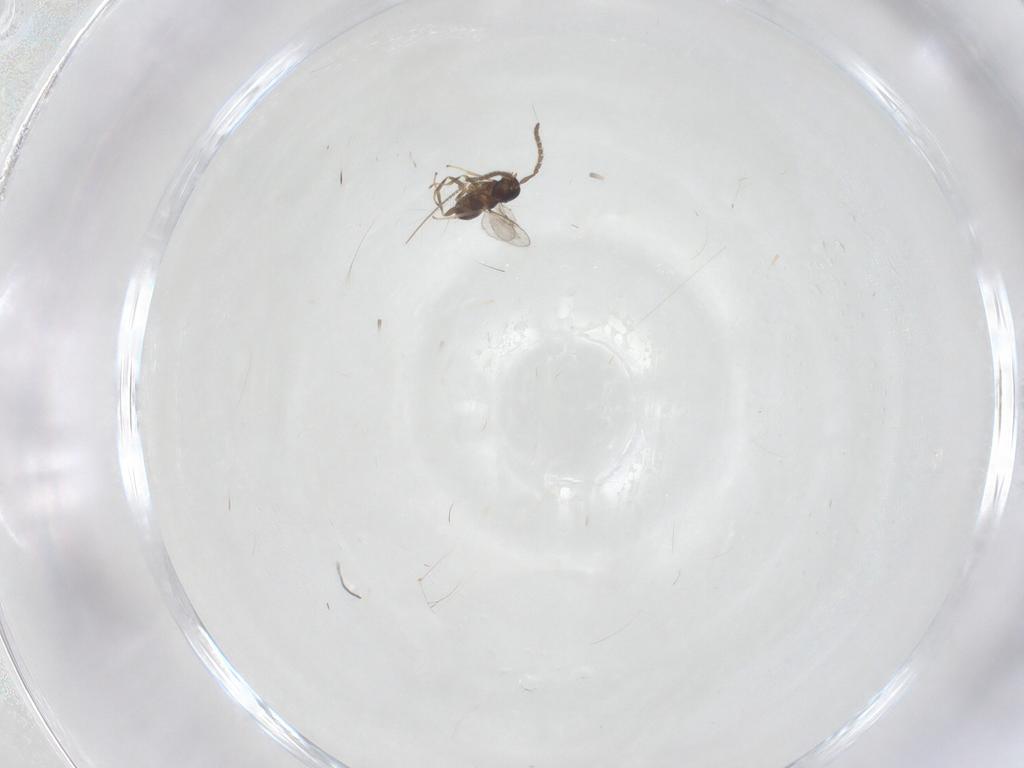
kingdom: Animalia
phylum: Arthropoda
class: Insecta
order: Hymenoptera
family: Encyrtidae
